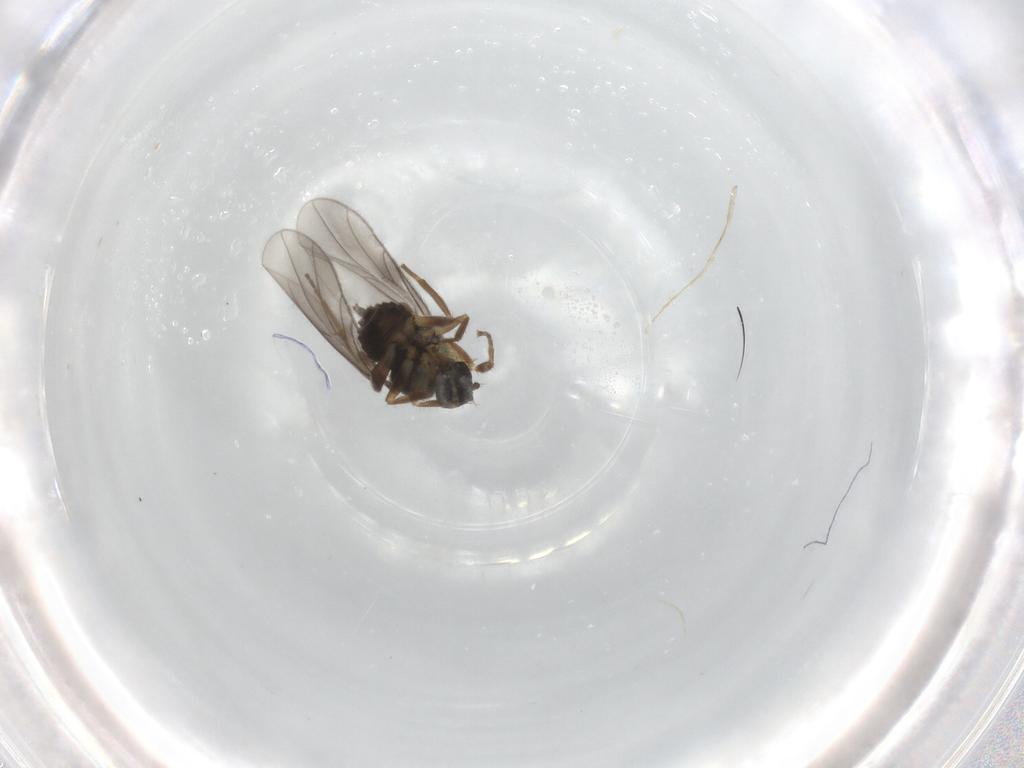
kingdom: Animalia
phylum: Arthropoda
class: Insecta
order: Diptera
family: Hybotidae
